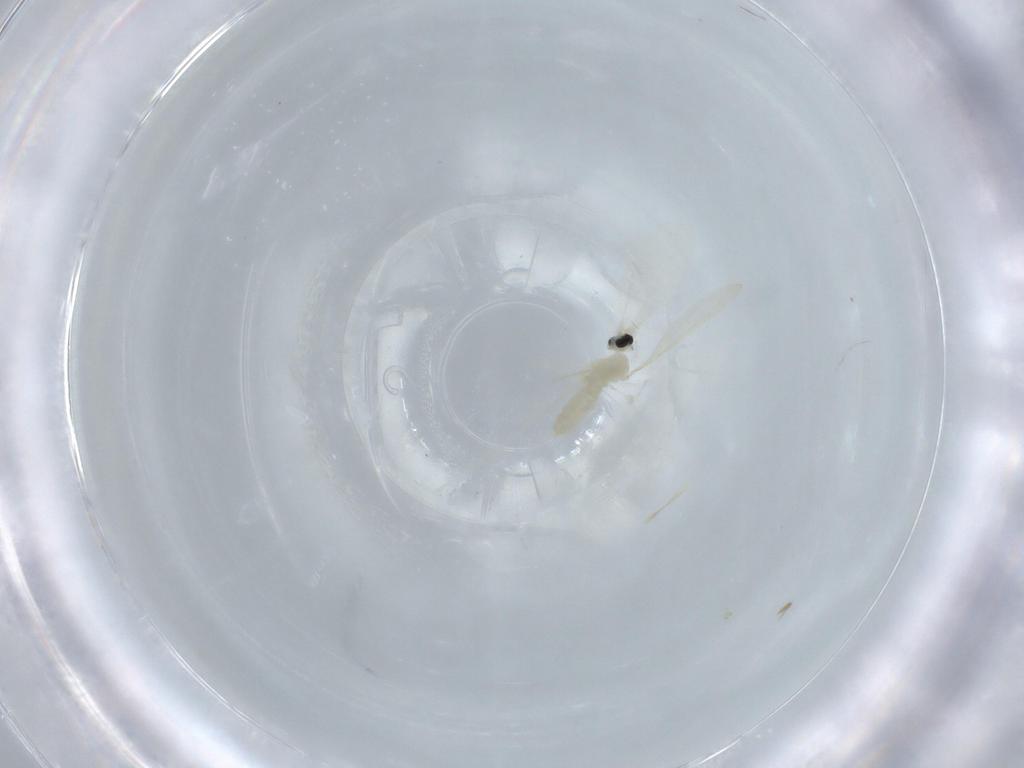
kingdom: Animalia
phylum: Arthropoda
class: Insecta
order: Diptera
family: Cecidomyiidae
